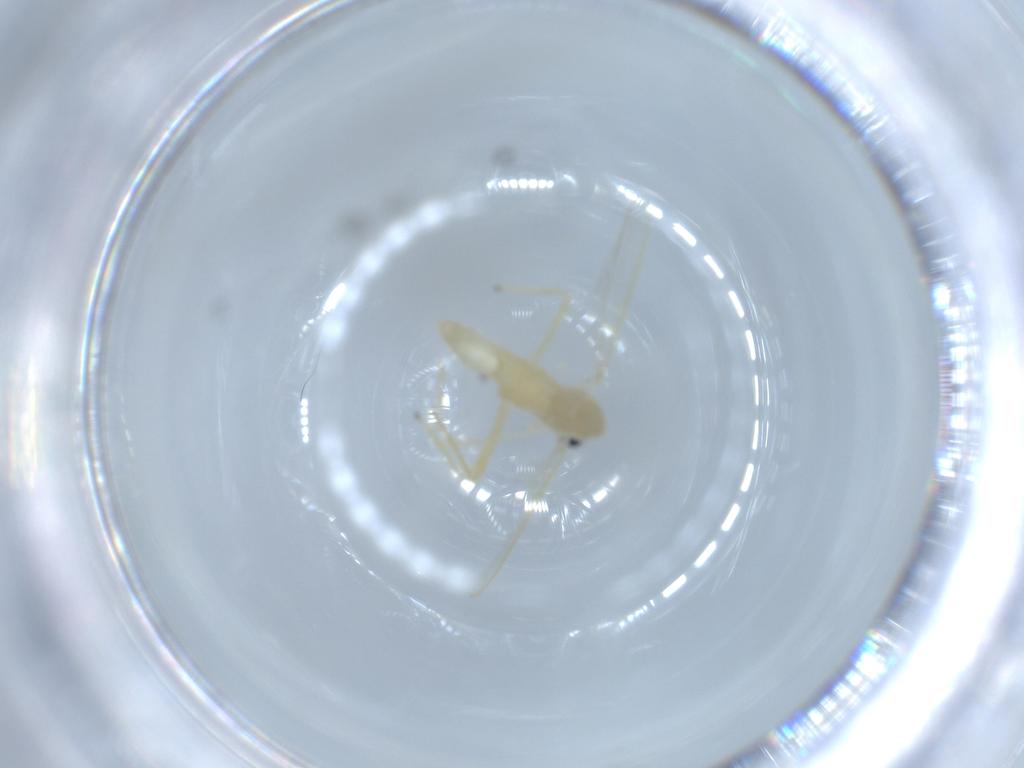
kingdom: Animalia
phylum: Arthropoda
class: Insecta
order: Diptera
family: Chironomidae
